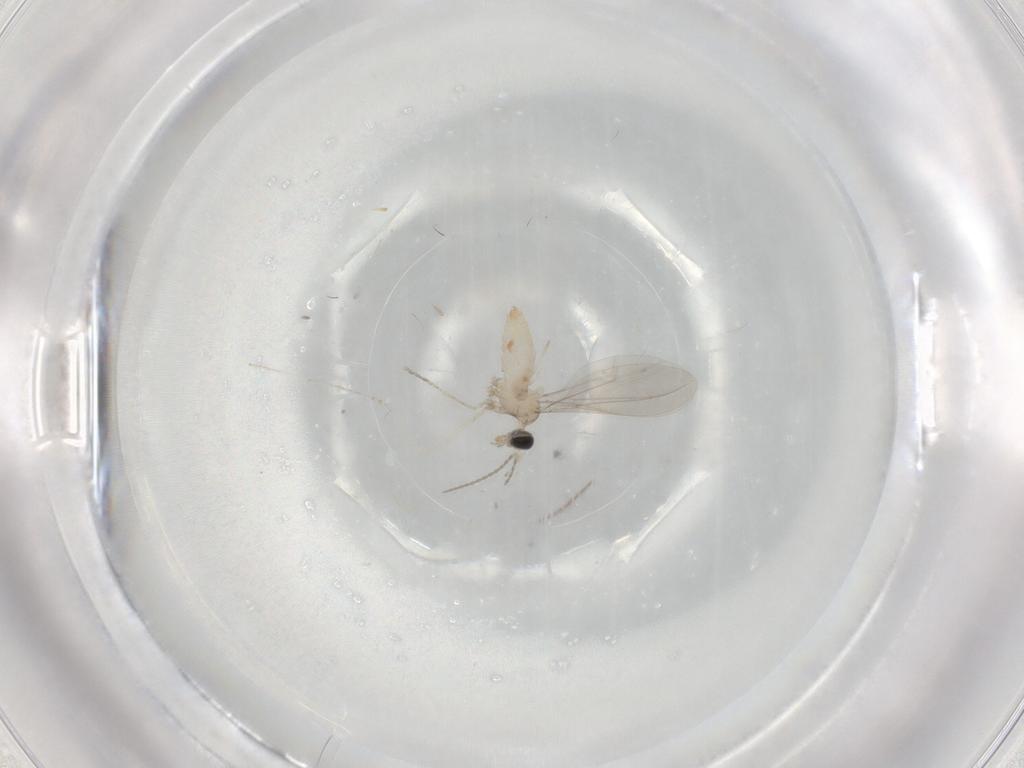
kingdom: Animalia
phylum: Arthropoda
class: Insecta
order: Diptera
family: Cecidomyiidae
